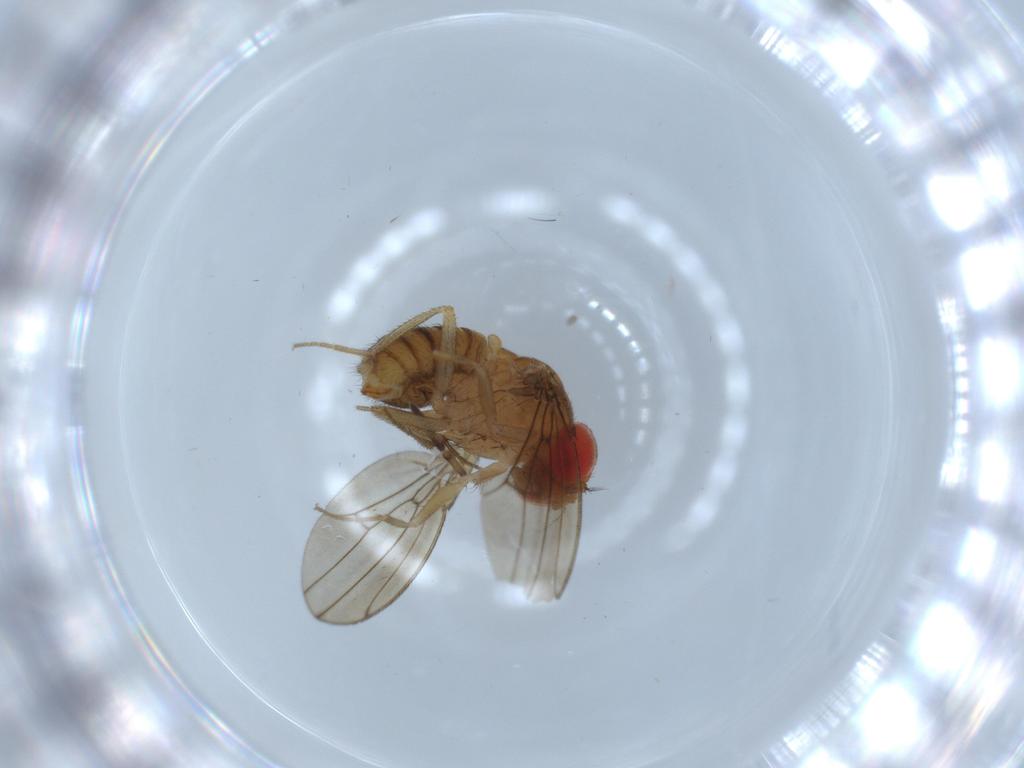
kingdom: Animalia
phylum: Arthropoda
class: Insecta
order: Diptera
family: Drosophilidae
